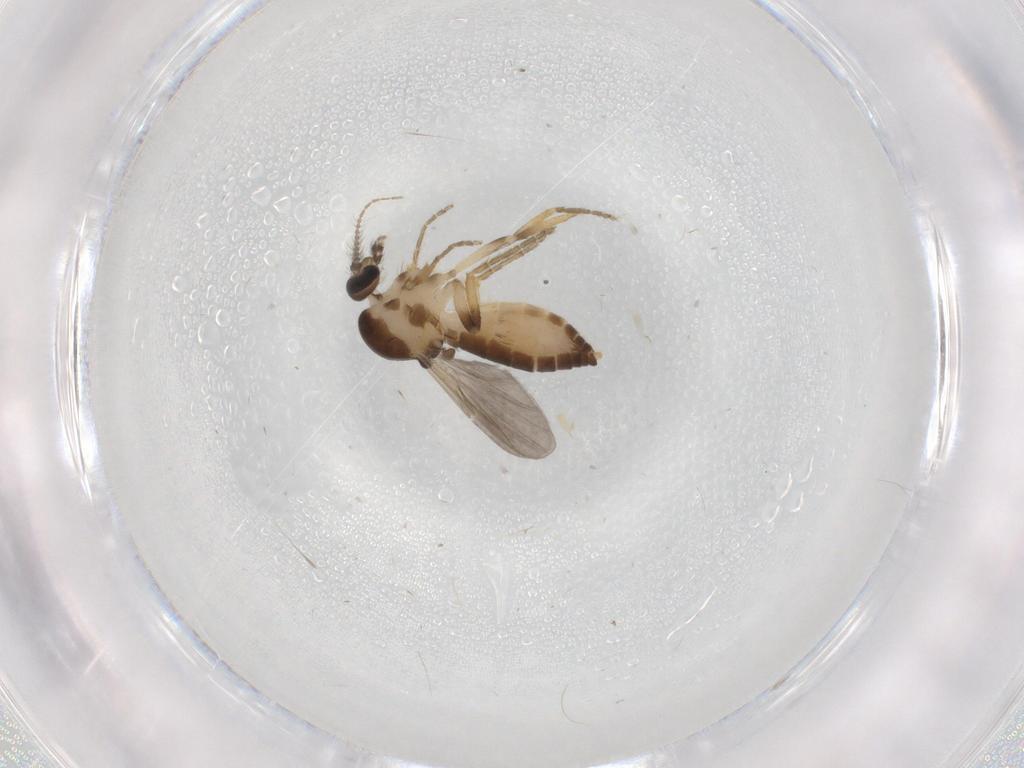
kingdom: Animalia
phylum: Arthropoda
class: Insecta
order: Diptera
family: Ceratopogonidae
